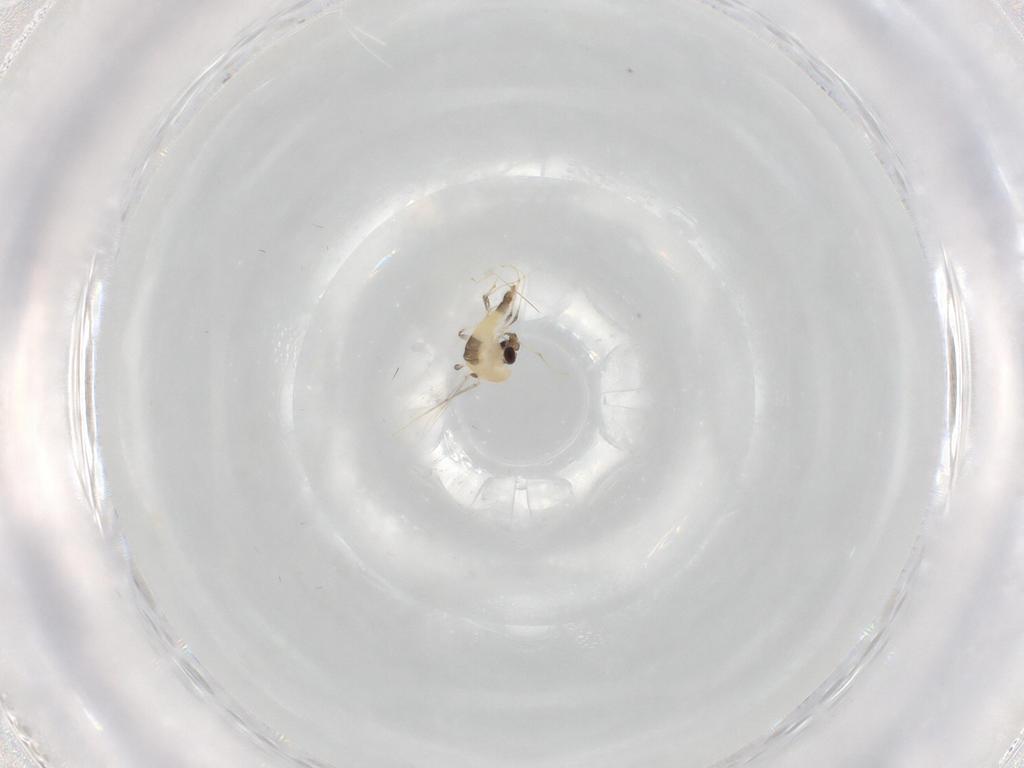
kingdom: Animalia
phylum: Arthropoda
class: Insecta
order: Diptera
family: Chironomidae
